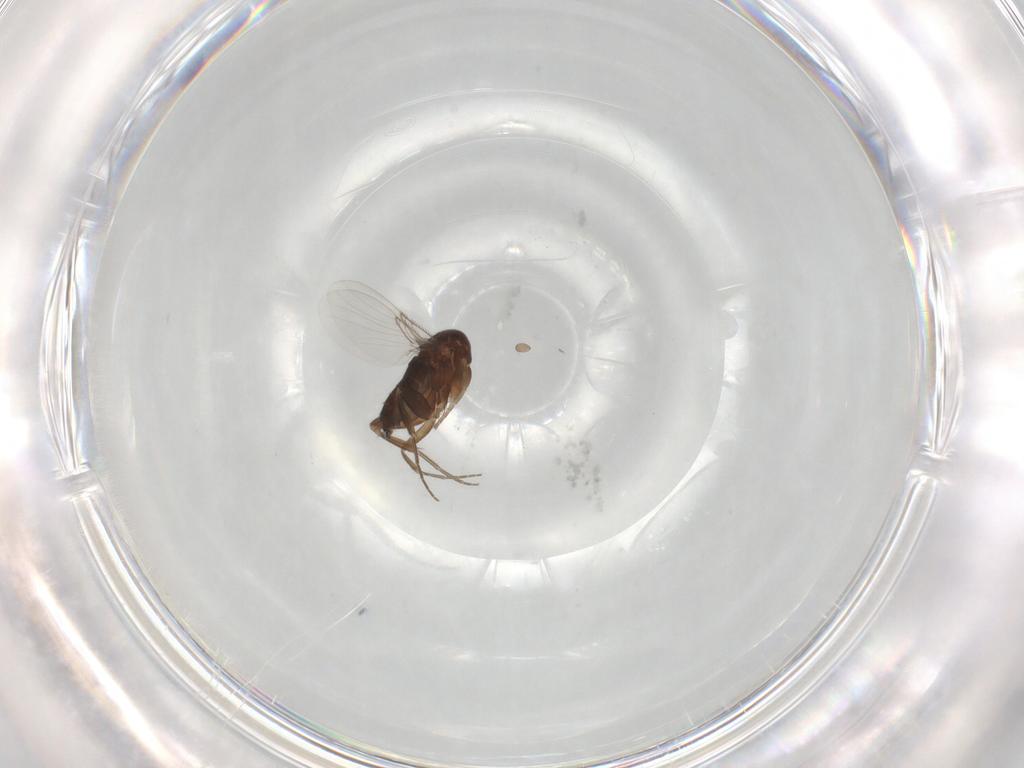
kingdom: Animalia
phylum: Arthropoda
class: Insecta
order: Diptera
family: Phoridae
